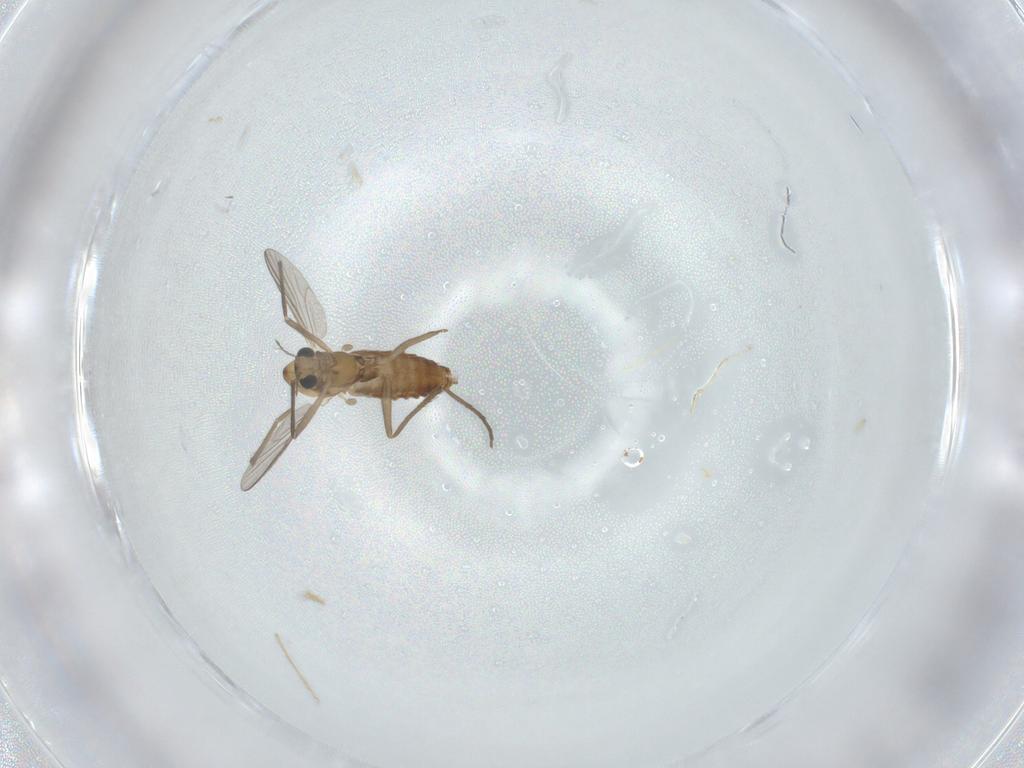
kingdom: Animalia
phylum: Arthropoda
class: Insecta
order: Diptera
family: Chironomidae
